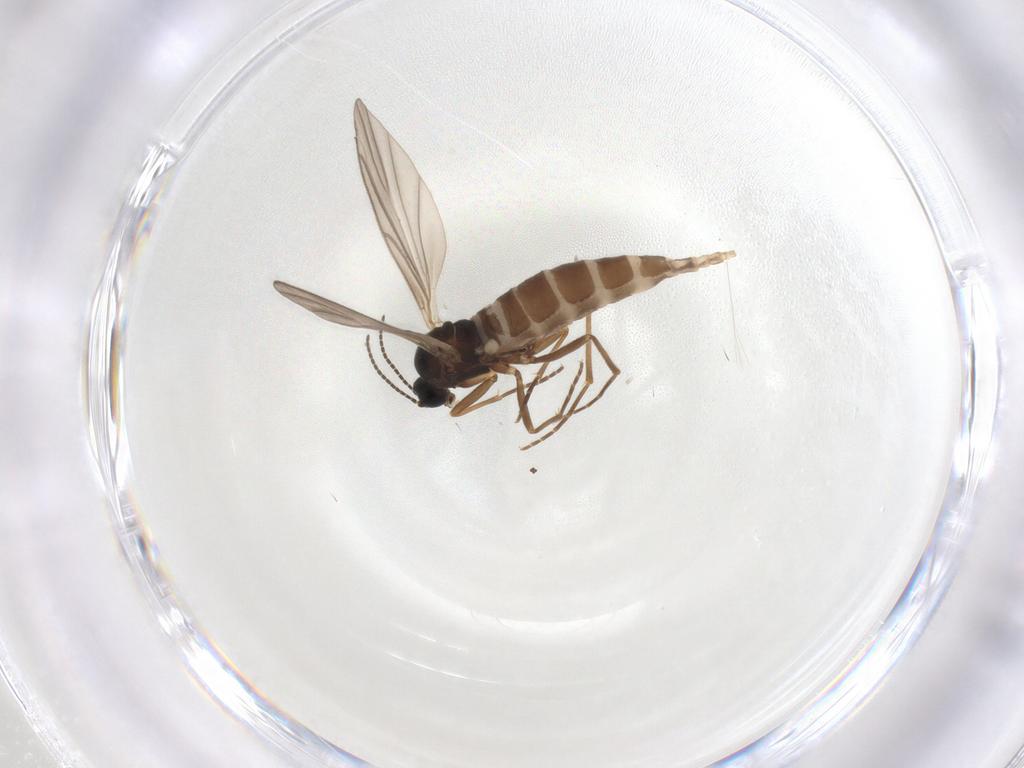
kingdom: Animalia
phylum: Arthropoda
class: Insecta
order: Diptera
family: Sciaridae
